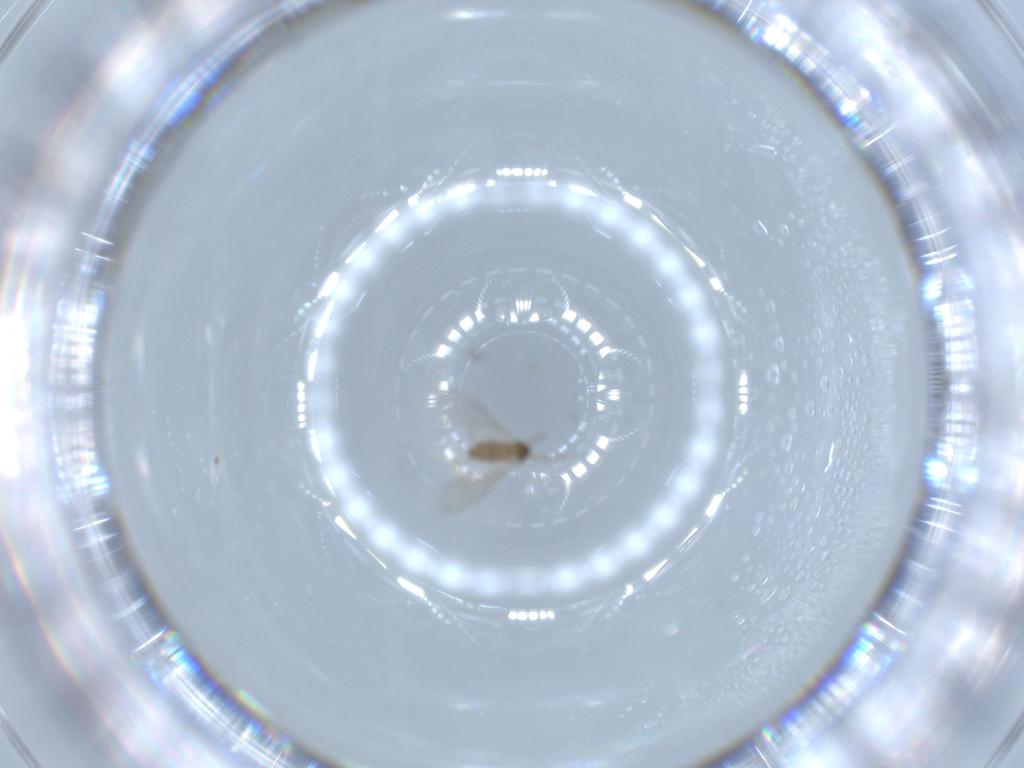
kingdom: Animalia
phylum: Arthropoda
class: Insecta
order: Diptera
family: Cecidomyiidae
